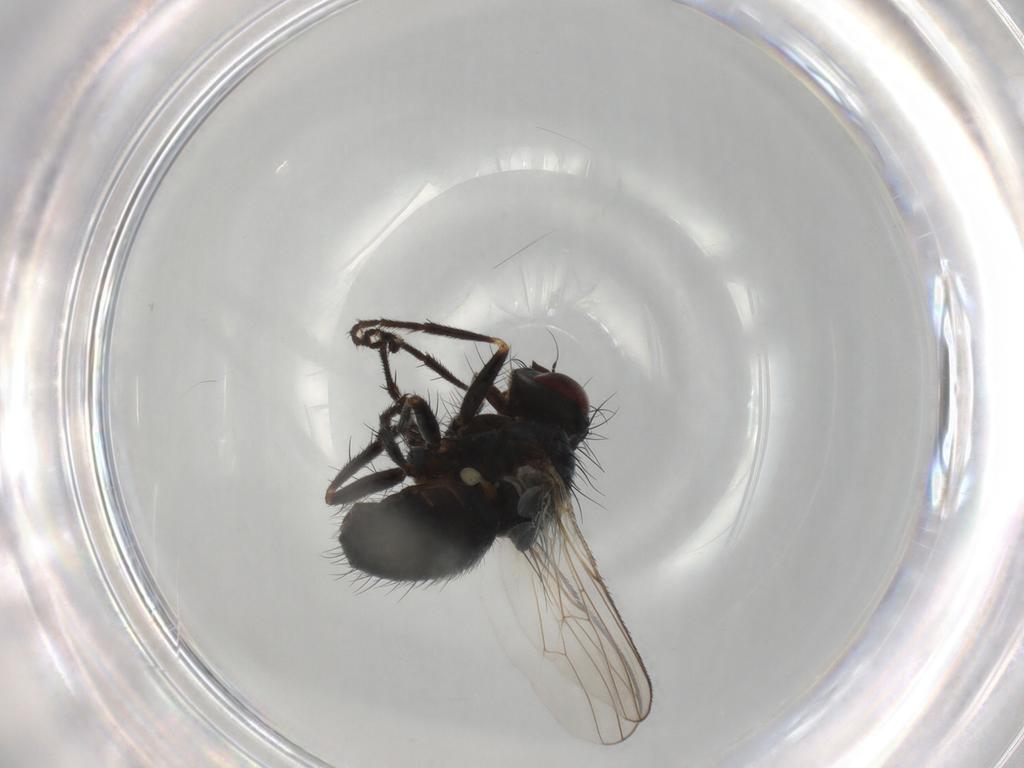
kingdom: Animalia
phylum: Arthropoda
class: Insecta
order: Diptera
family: Muscidae
